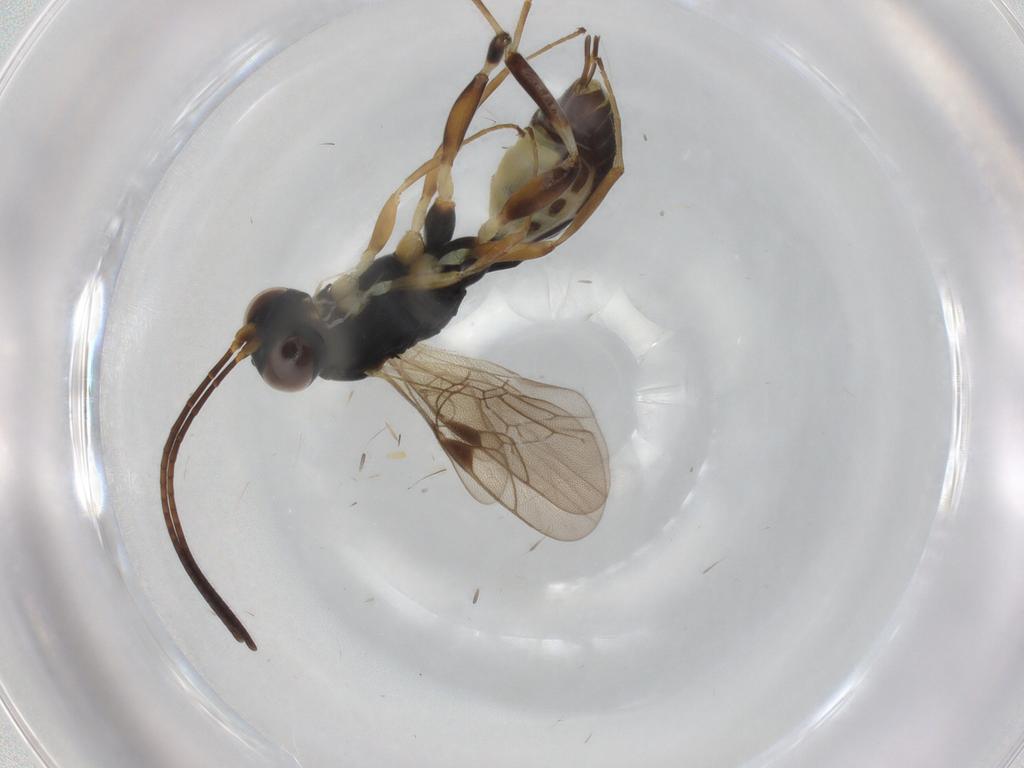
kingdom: Animalia
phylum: Arthropoda
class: Insecta
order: Hymenoptera
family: Ichneumonidae
